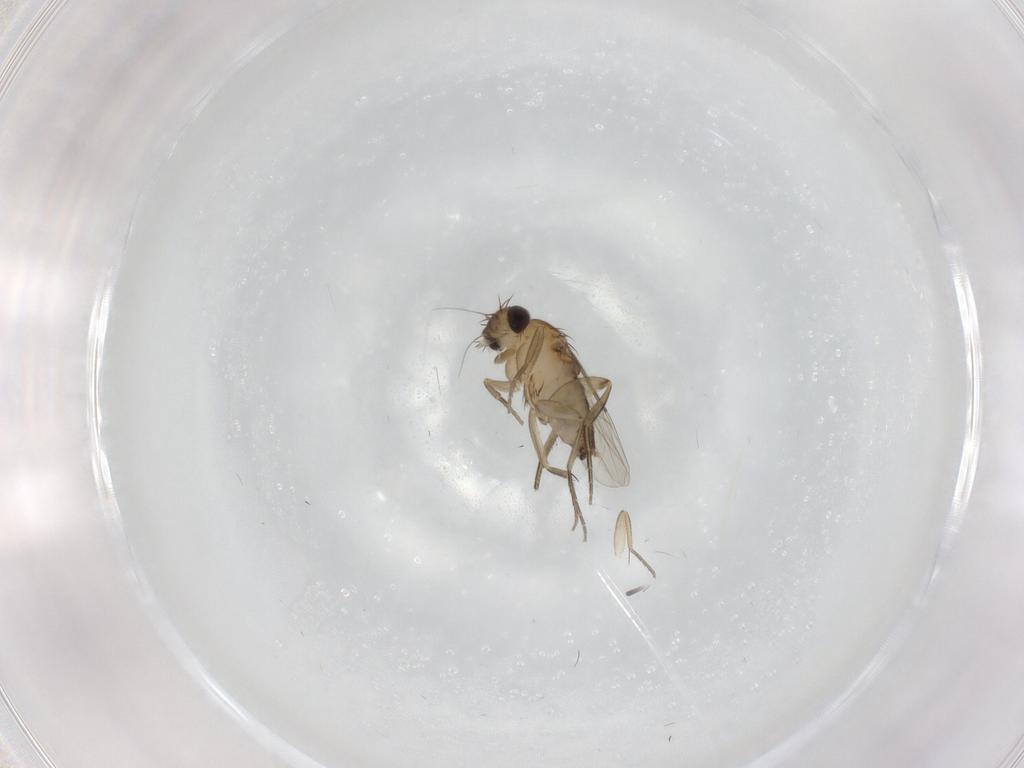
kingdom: Animalia
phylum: Arthropoda
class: Insecta
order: Diptera
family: Phoridae
